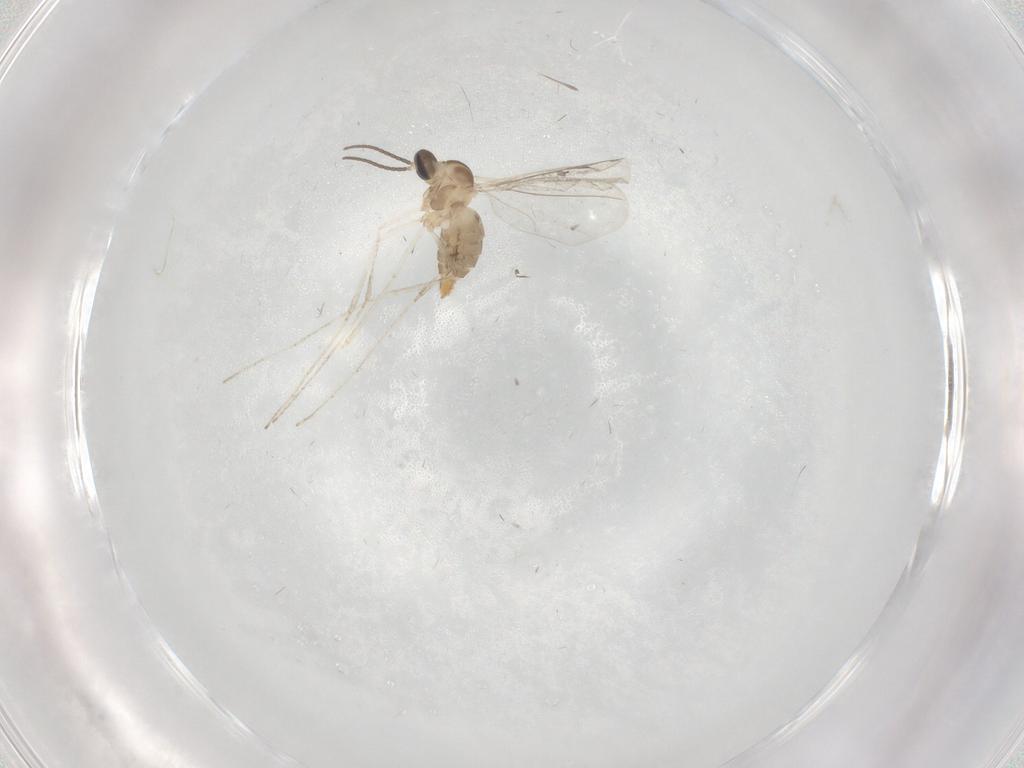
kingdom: Animalia
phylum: Arthropoda
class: Insecta
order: Diptera
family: Cecidomyiidae
